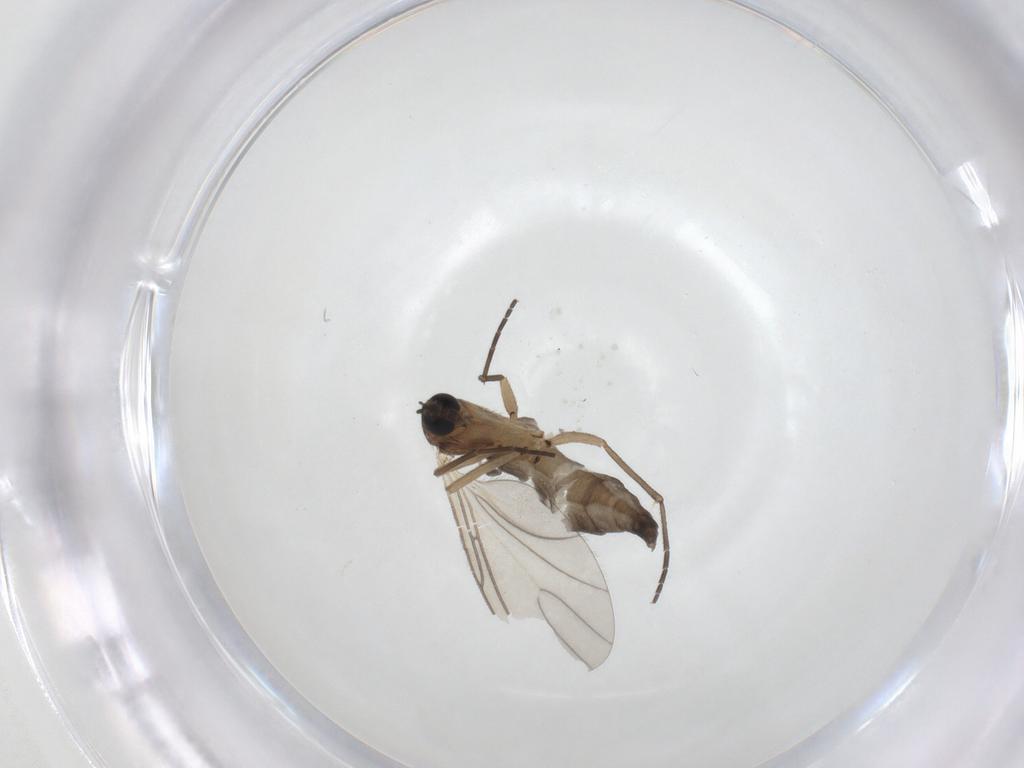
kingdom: Animalia
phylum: Arthropoda
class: Insecta
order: Diptera
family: Sciaridae
